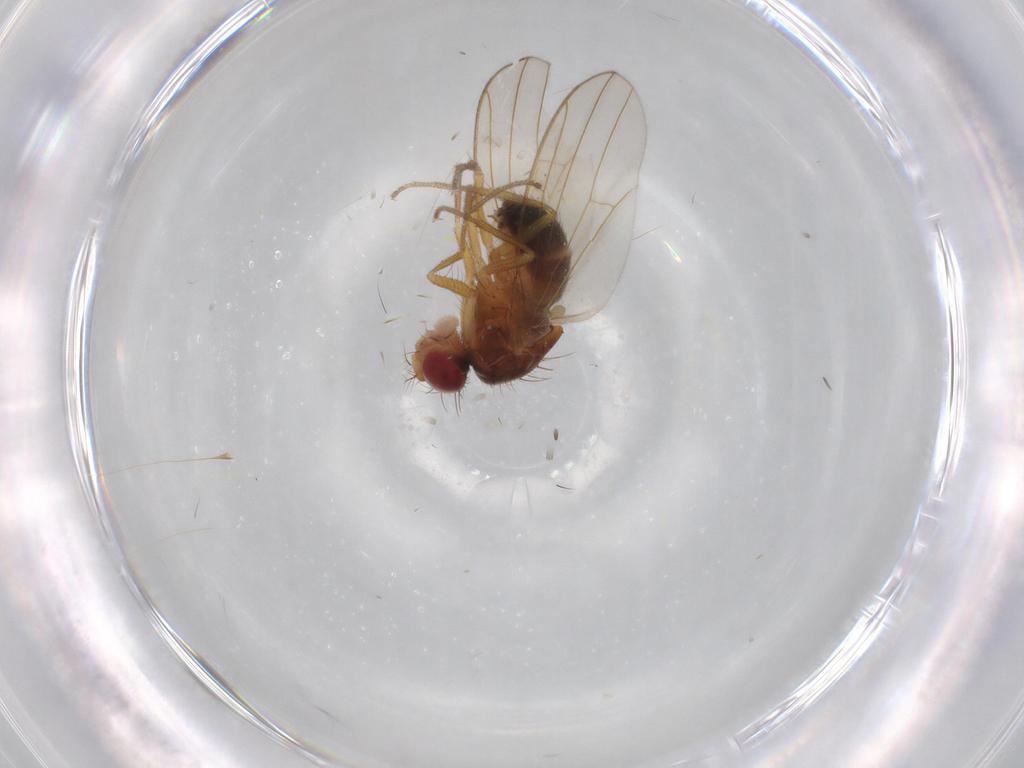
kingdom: Animalia
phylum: Arthropoda
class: Insecta
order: Diptera
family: Drosophilidae
